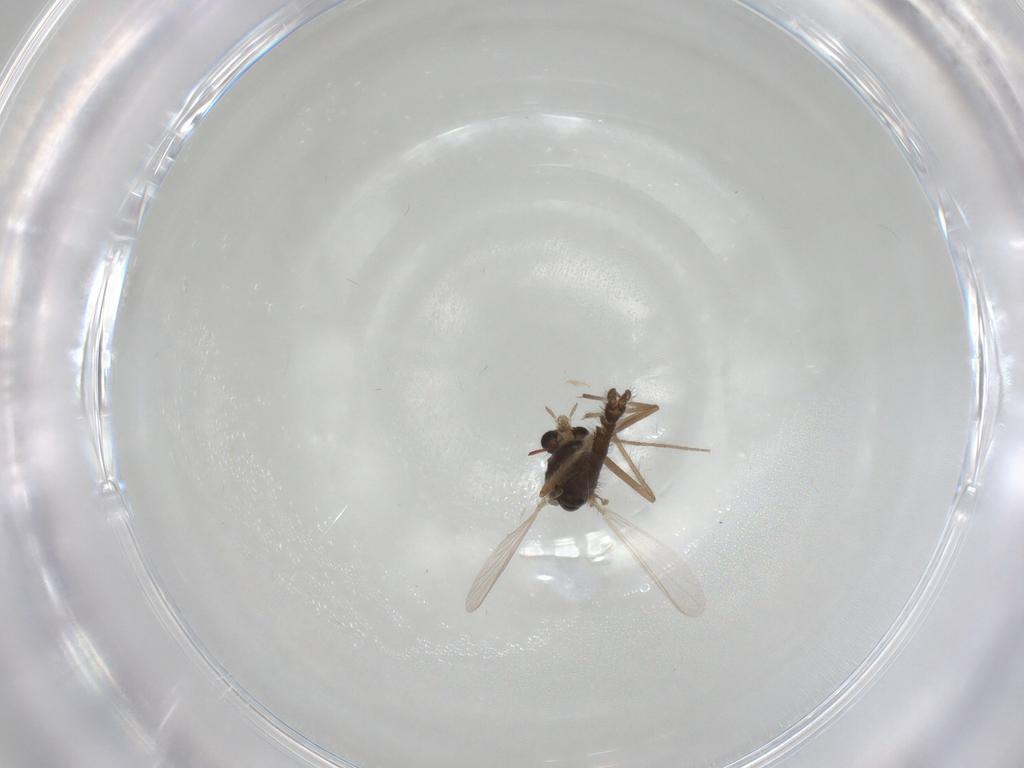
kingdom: Animalia
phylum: Arthropoda
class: Insecta
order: Diptera
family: Chironomidae
